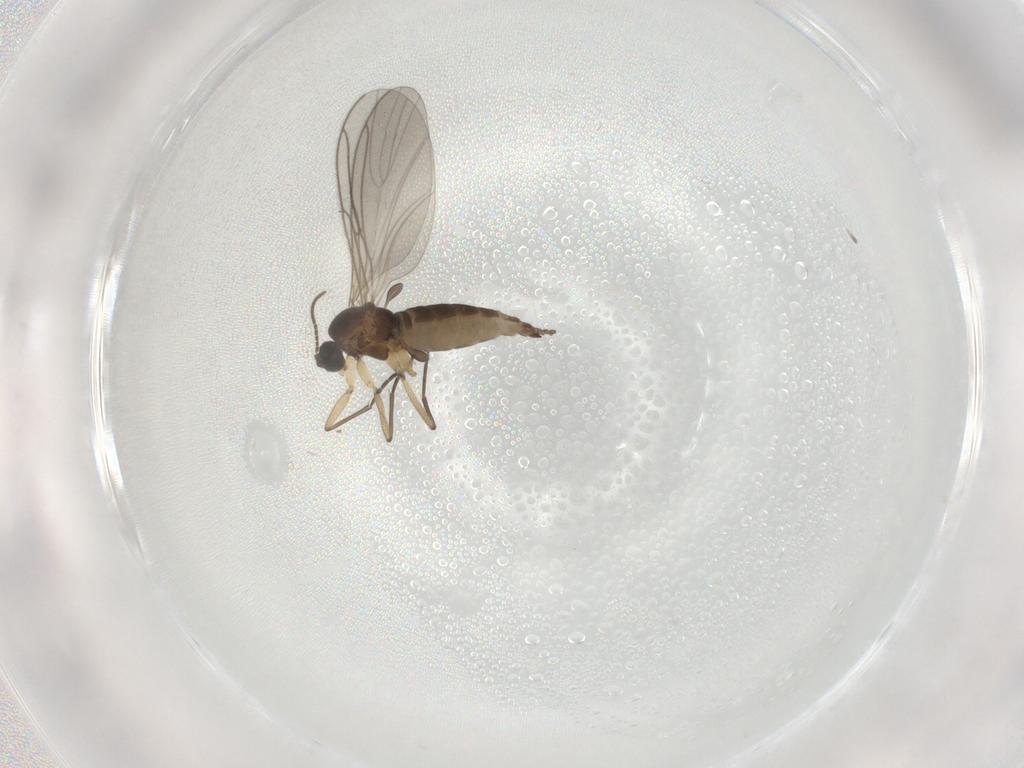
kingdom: Animalia
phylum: Arthropoda
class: Insecta
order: Diptera
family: Sciaridae
